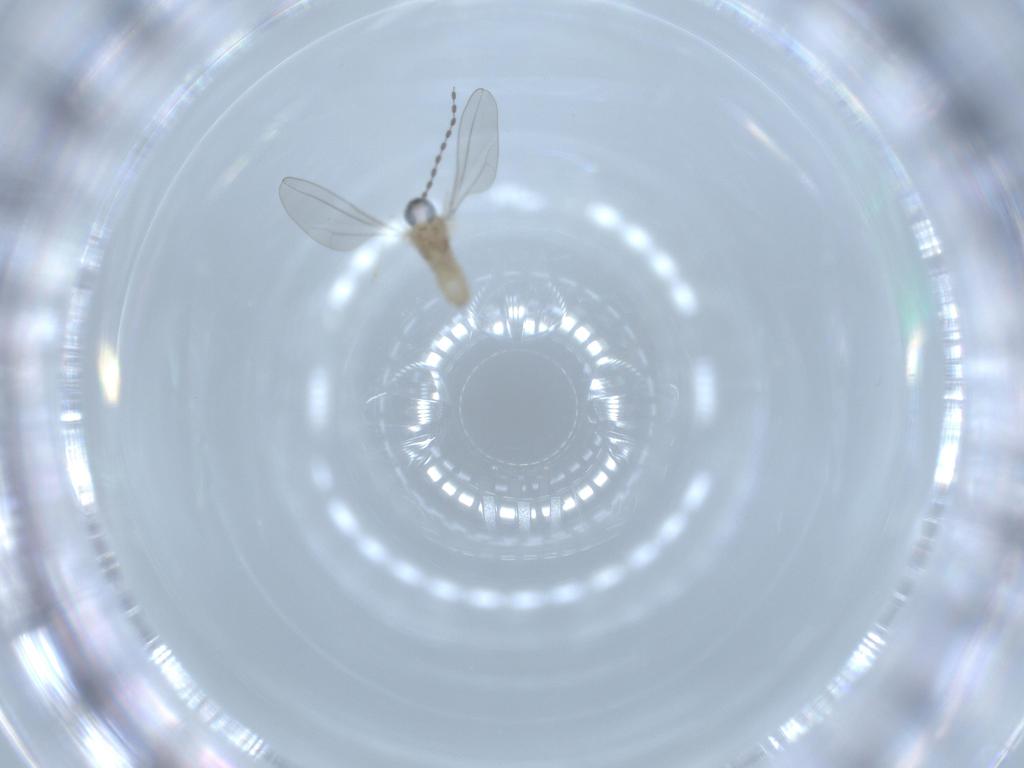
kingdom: Animalia
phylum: Arthropoda
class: Insecta
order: Diptera
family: Cecidomyiidae
